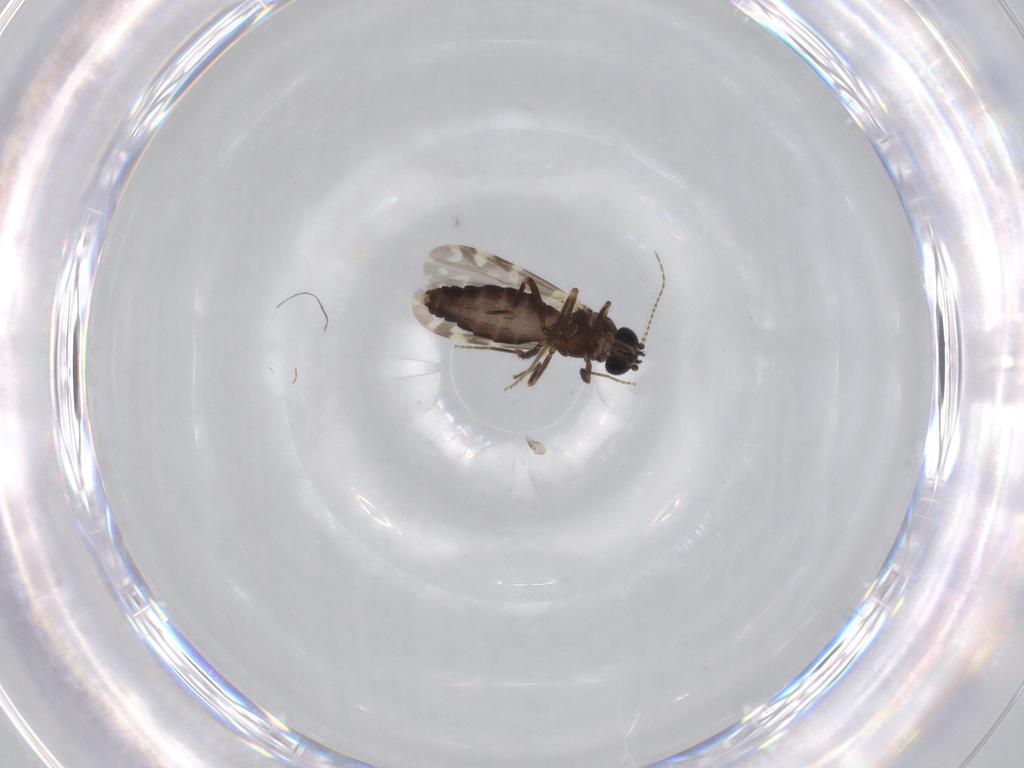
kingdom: Animalia
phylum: Arthropoda
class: Insecta
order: Diptera
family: Ceratopogonidae
